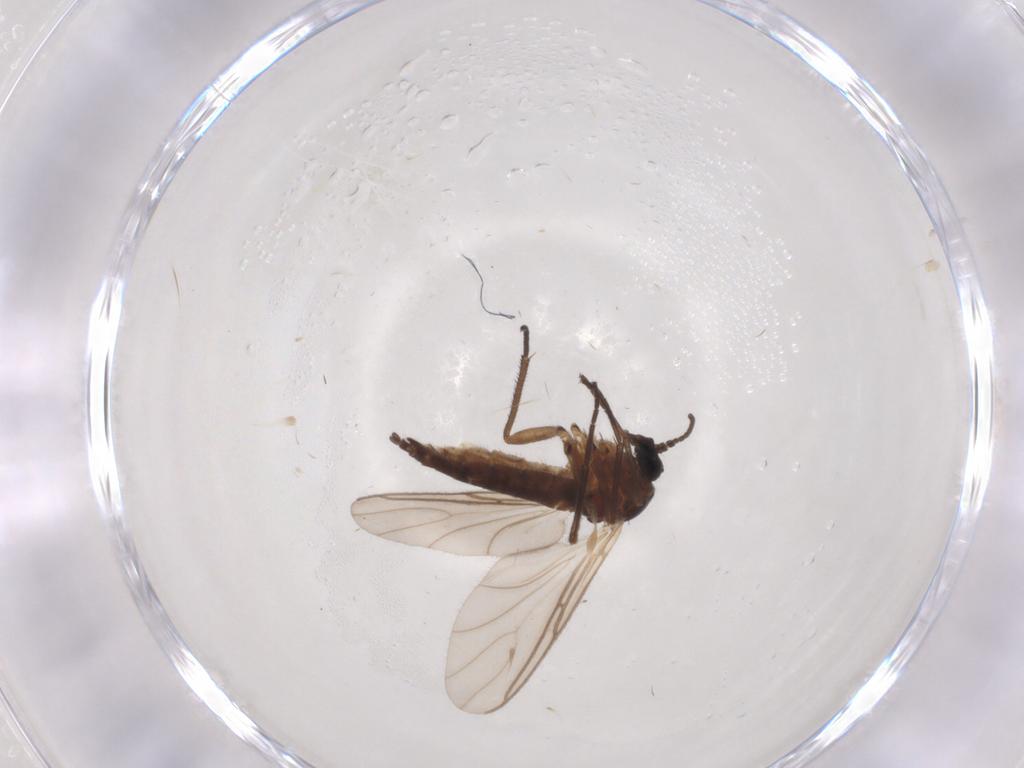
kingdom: Animalia
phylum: Arthropoda
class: Insecta
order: Diptera
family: Sciaridae
